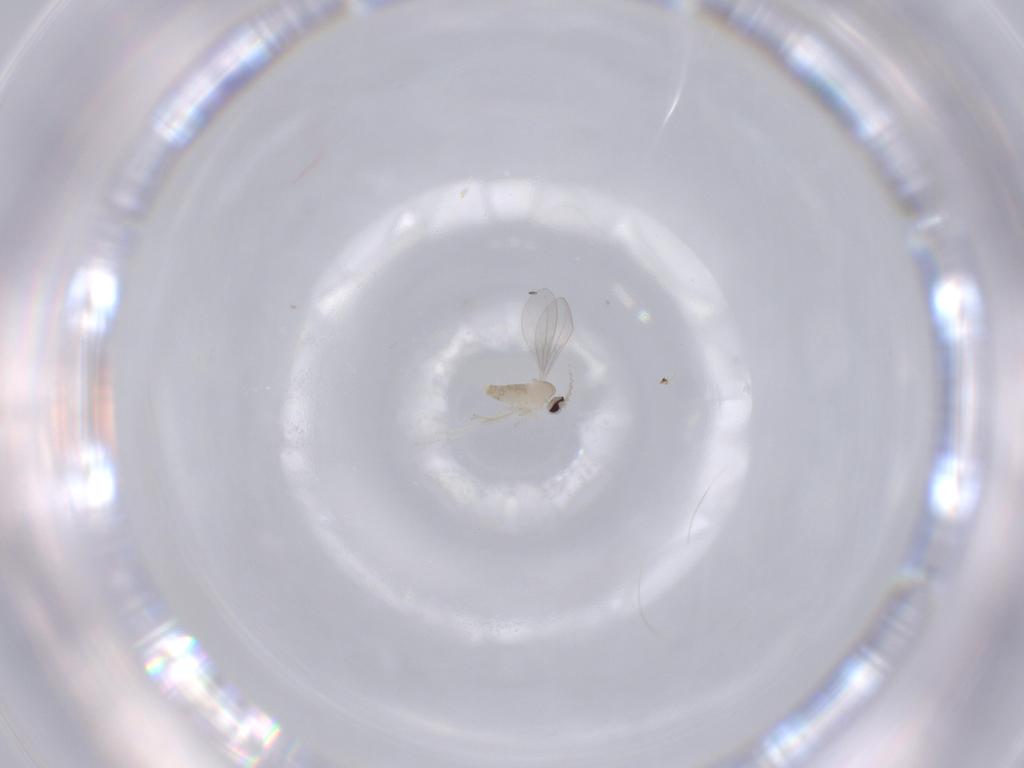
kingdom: Animalia
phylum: Arthropoda
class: Insecta
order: Diptera
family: Cecidomyiidae
